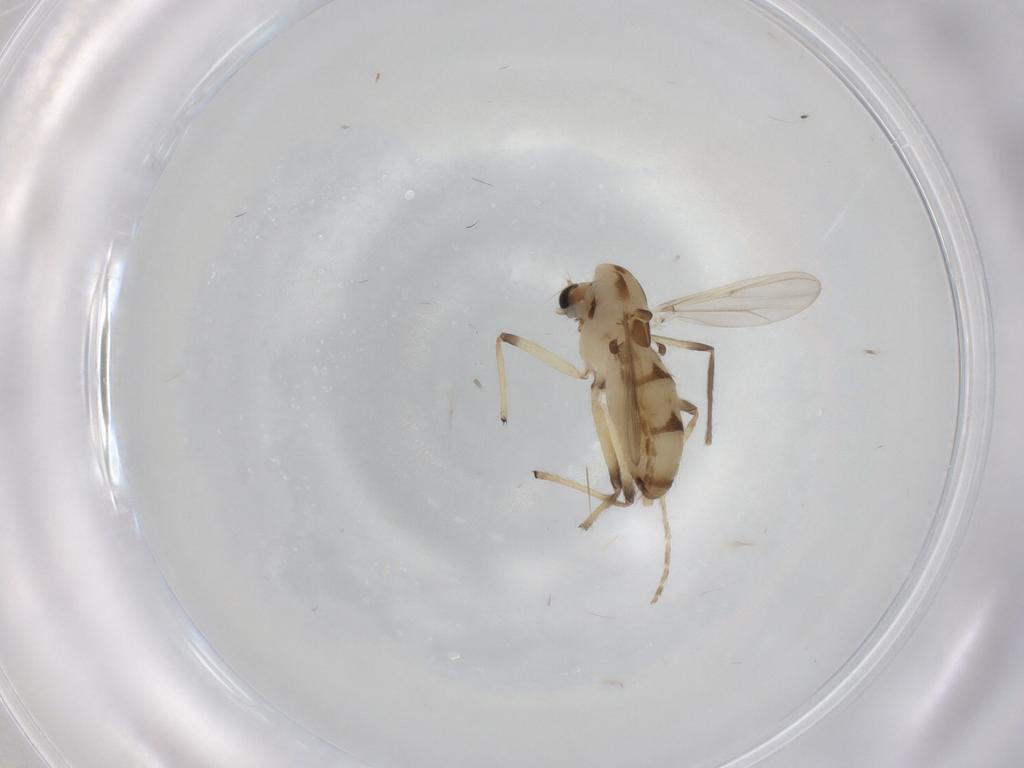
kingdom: Animalia
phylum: Arthropoda
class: Insecta
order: Diptera
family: Chironomidae
